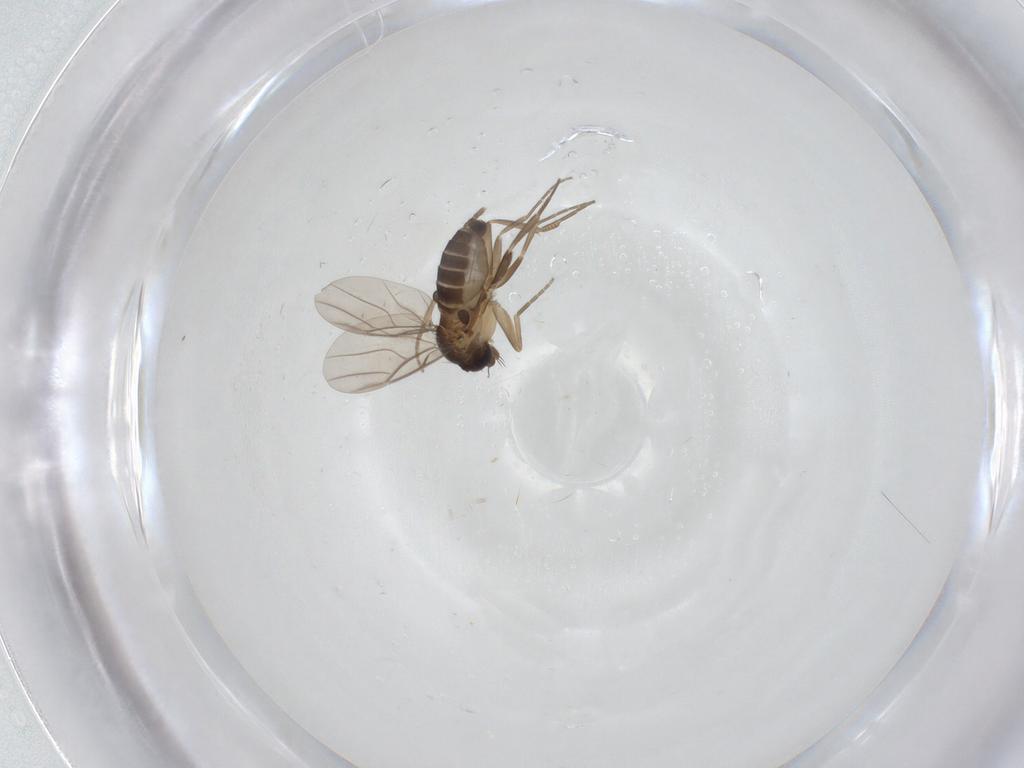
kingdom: Animalia
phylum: Arthropoda
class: Insecta
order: Diptera
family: Phoridae
